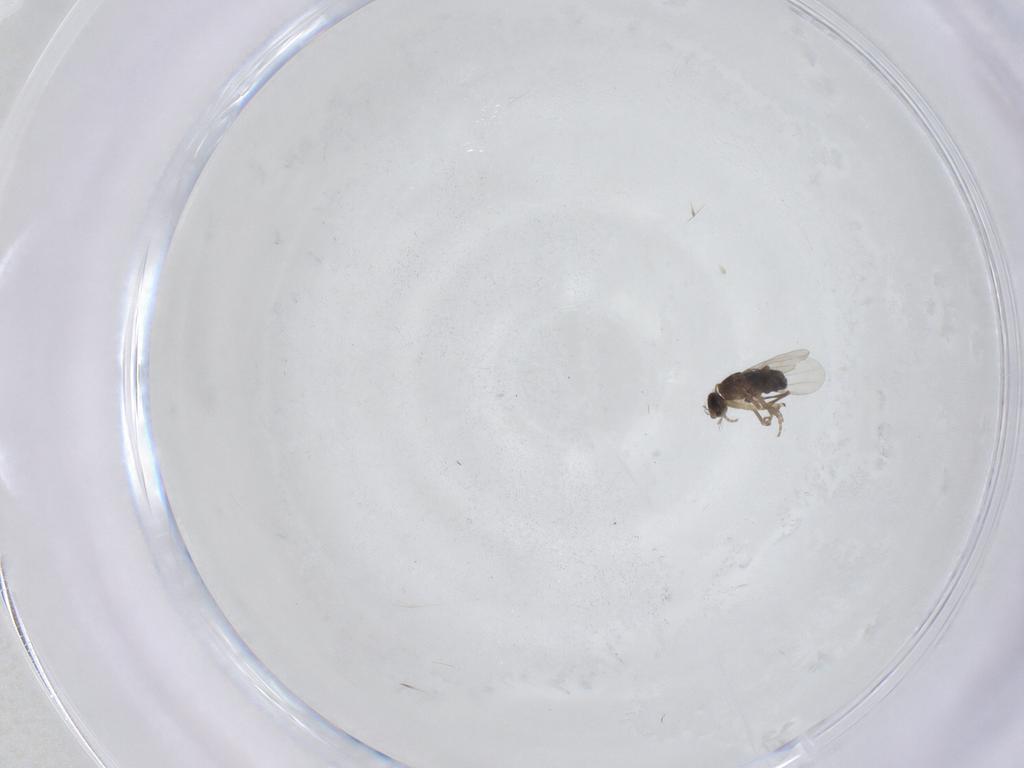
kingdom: Animalia
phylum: Arthropoda
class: Insecta
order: Diptera
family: Phoridae
